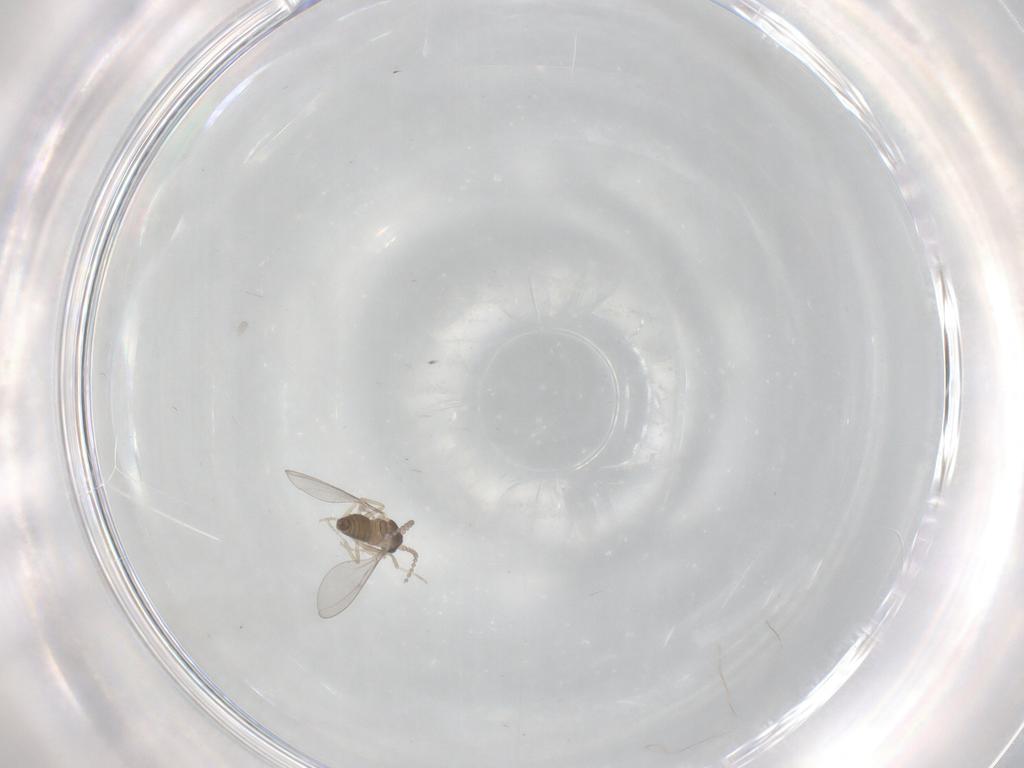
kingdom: Animalia
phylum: Arthropoda
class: Insecta
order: Diptera
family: Cecidomyiidae
